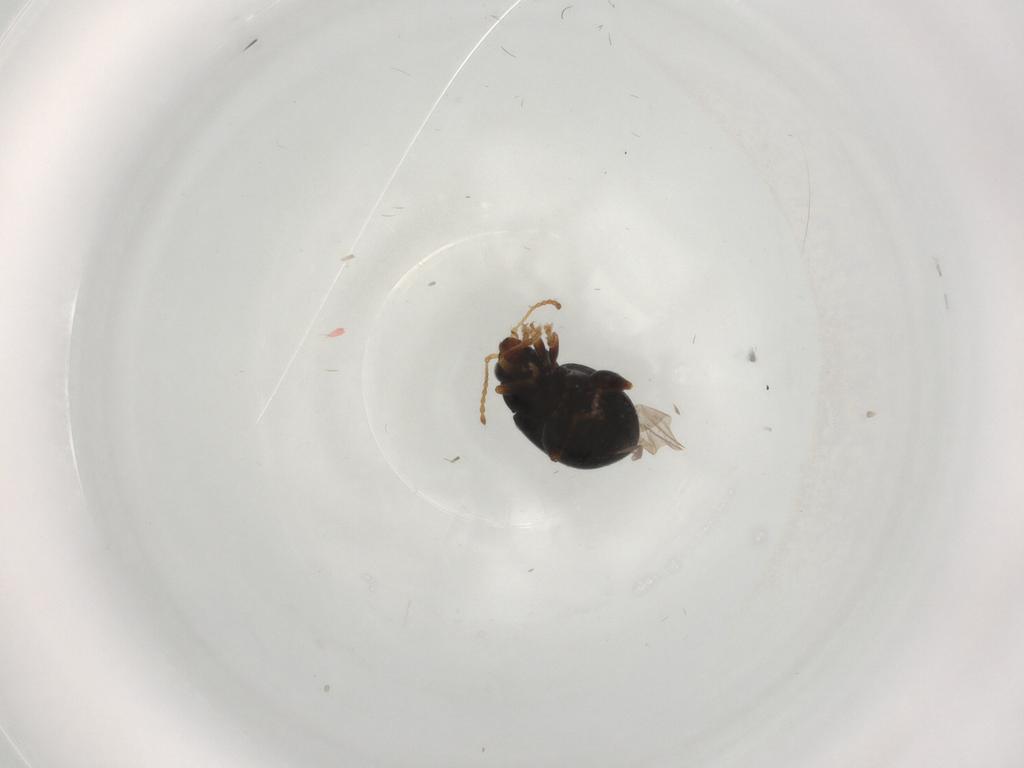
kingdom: Animalia
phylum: Arthropoda
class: Insecta
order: Coleoptera
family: Chrysomelidae
